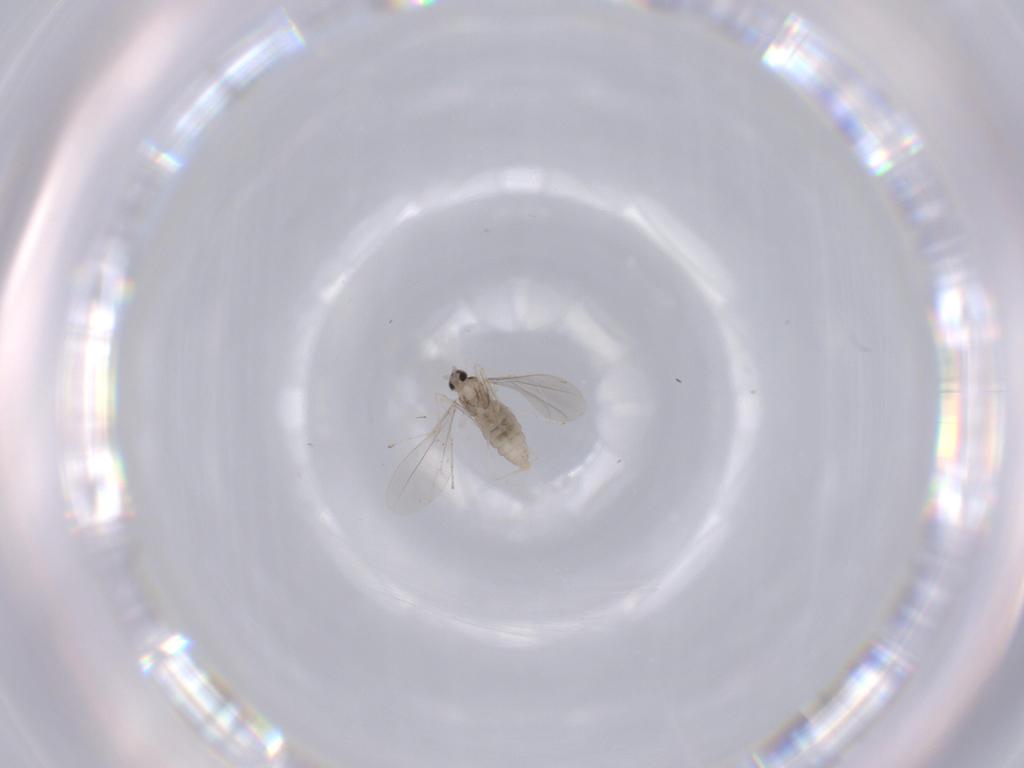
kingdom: Animalia
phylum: Arthropoda
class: Insecta
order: Diptera
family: Cecidomyiidae
